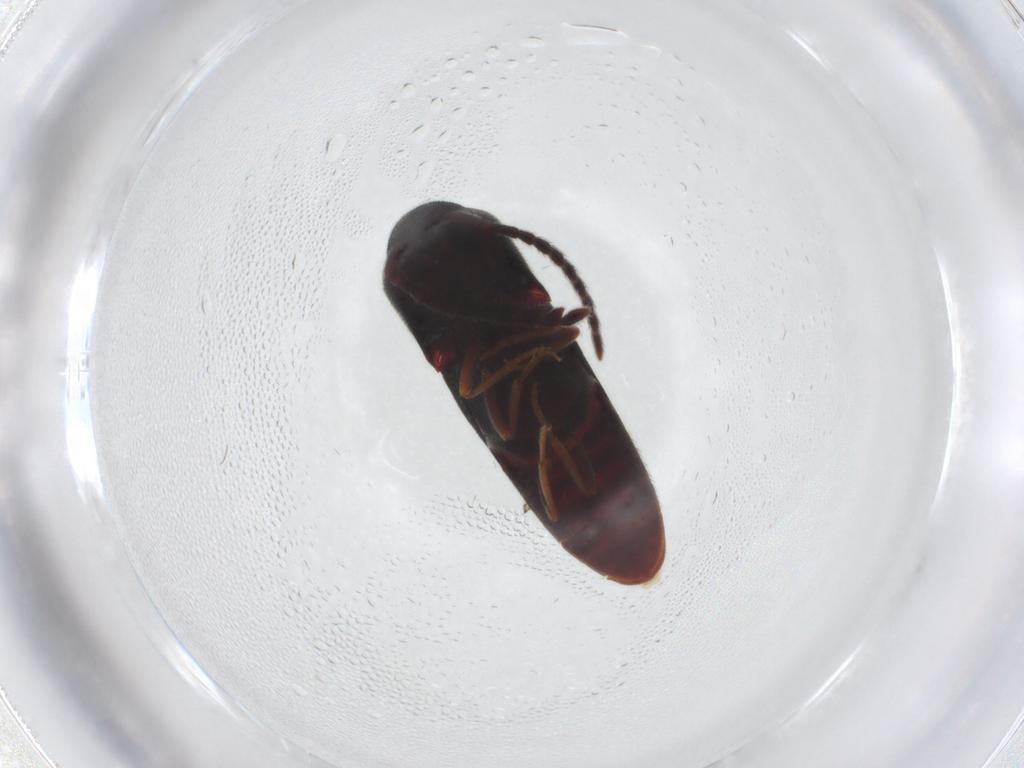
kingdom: Animalia
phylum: Arthropoda
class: Insecta
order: Coleoptera
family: Eucnemidae
